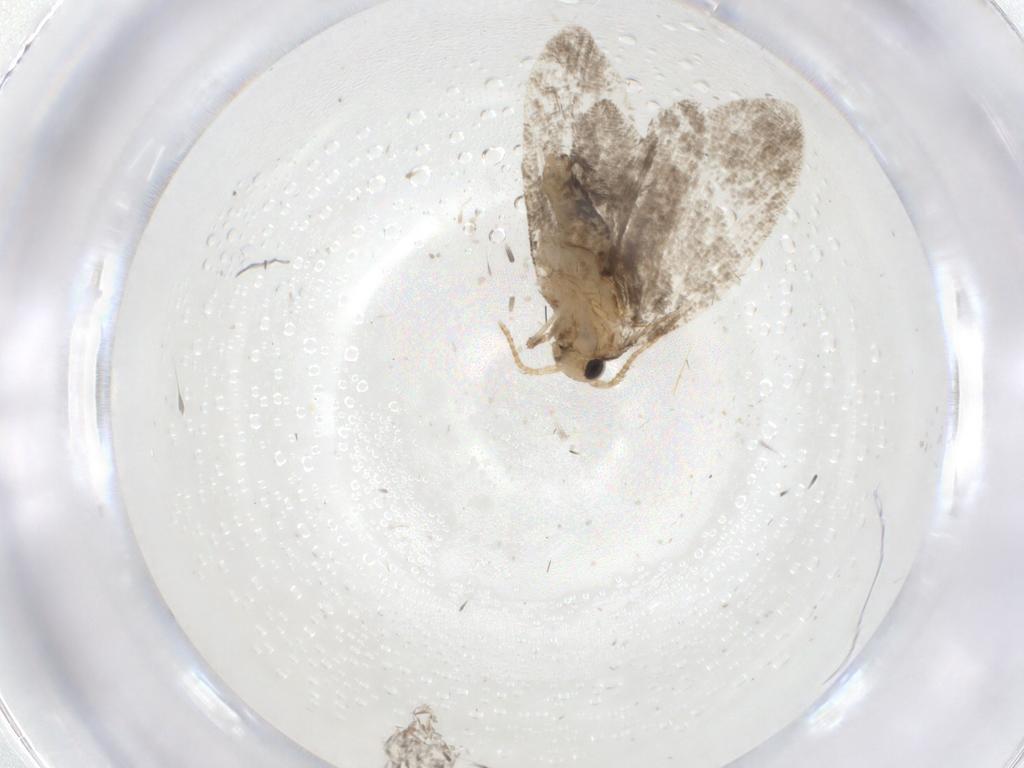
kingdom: Animalia
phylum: Arthropoda
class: Insecta
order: Lepidoptera
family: Psychidae
